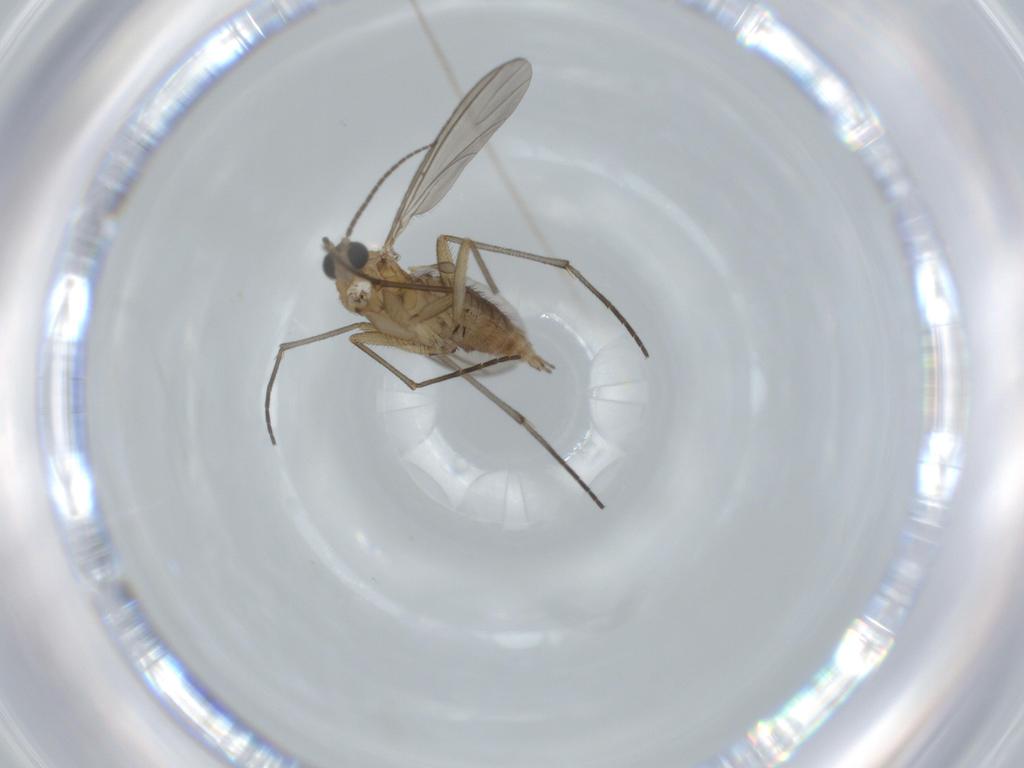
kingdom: Animalia
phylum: Arthropoda
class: Insecta
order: Diptera
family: Sciaridae
